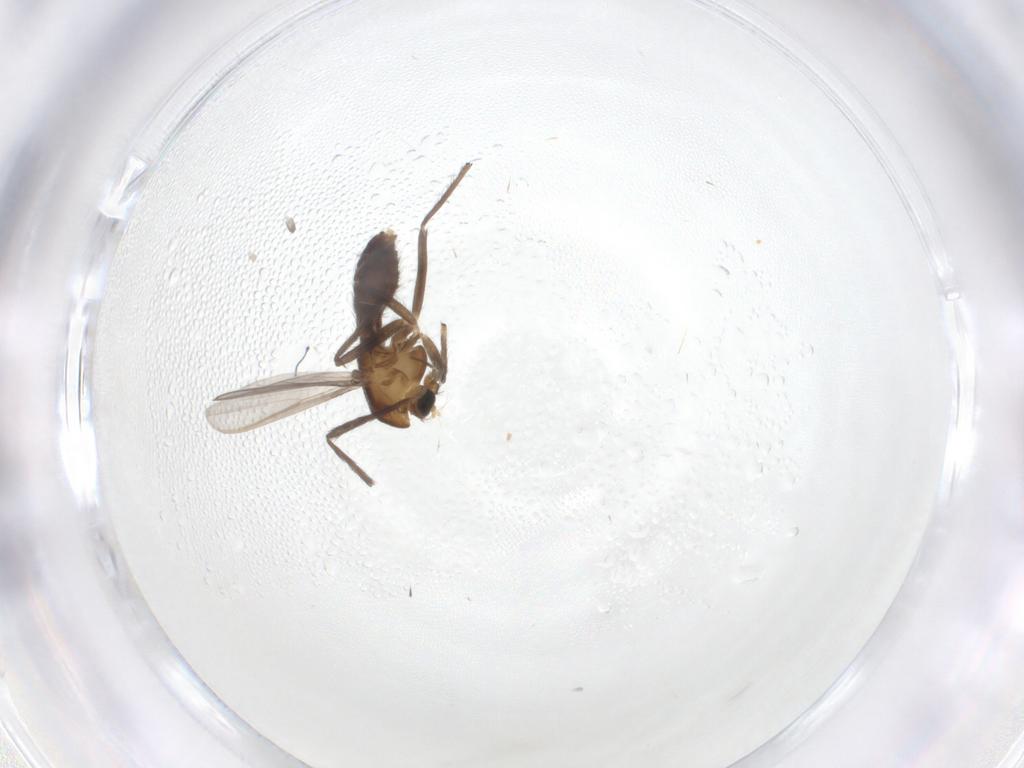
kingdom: Animalia
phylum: Arthropoda
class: Insecta
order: Diptera
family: Chironomidae
